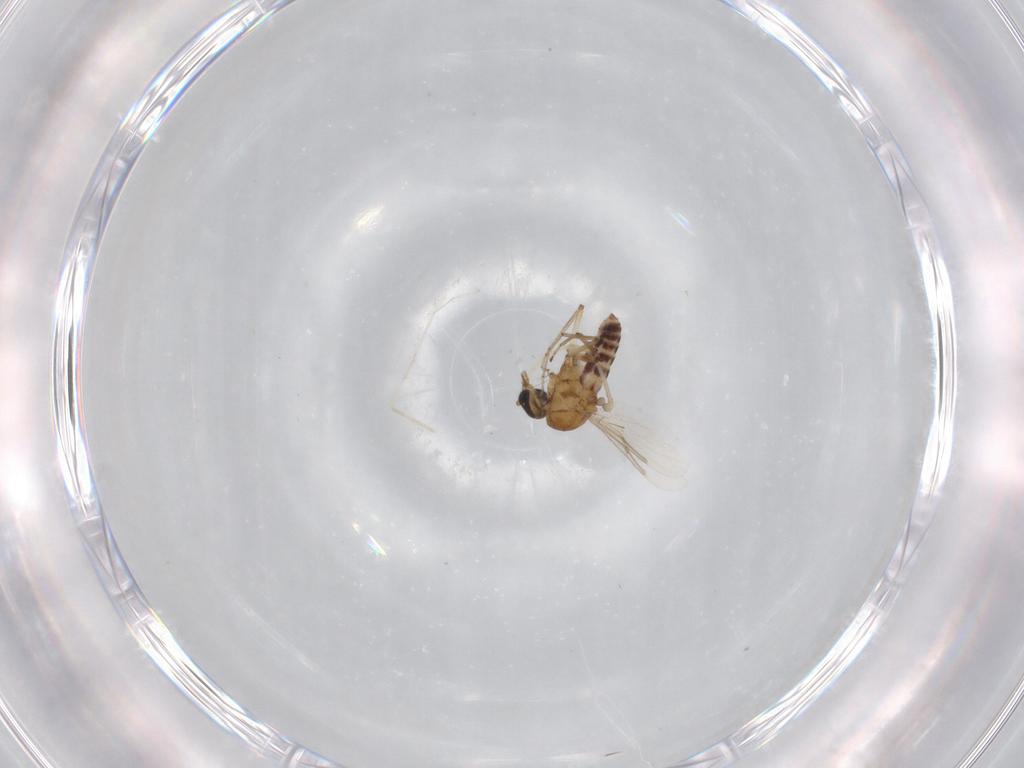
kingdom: Animalia
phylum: Arthropoda
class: Insecta
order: Diptera
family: Ceratopogonidae
